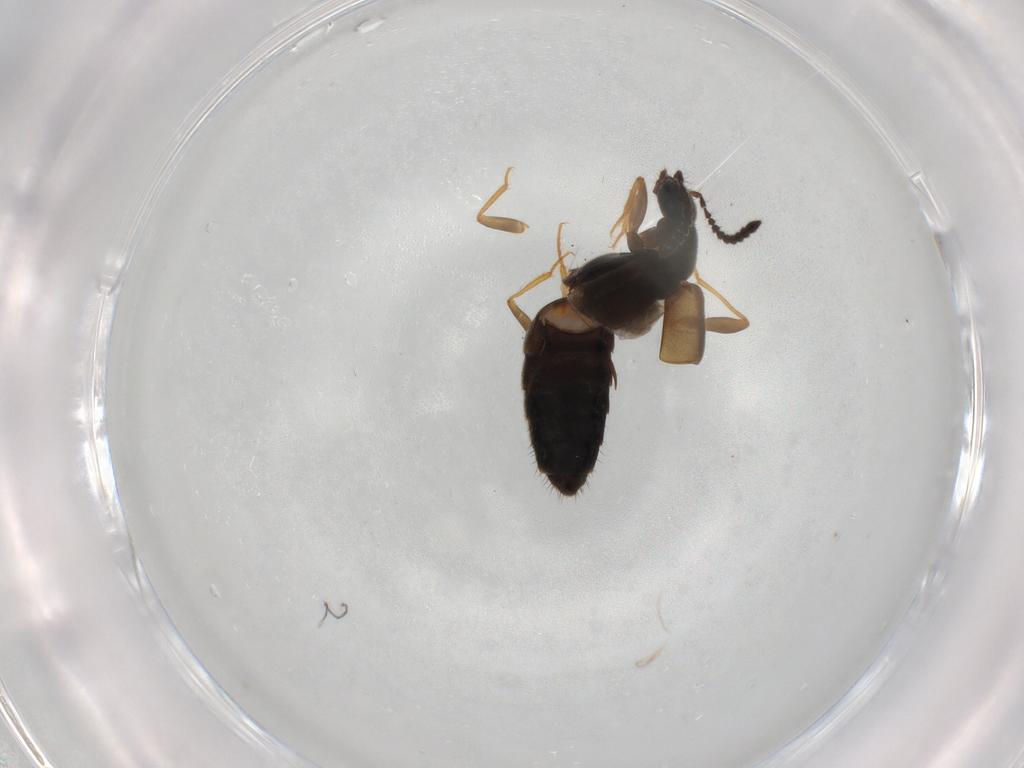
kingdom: Animalia
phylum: Arthropoda
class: Insecta
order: Coleoptera
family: Staphylinidae
